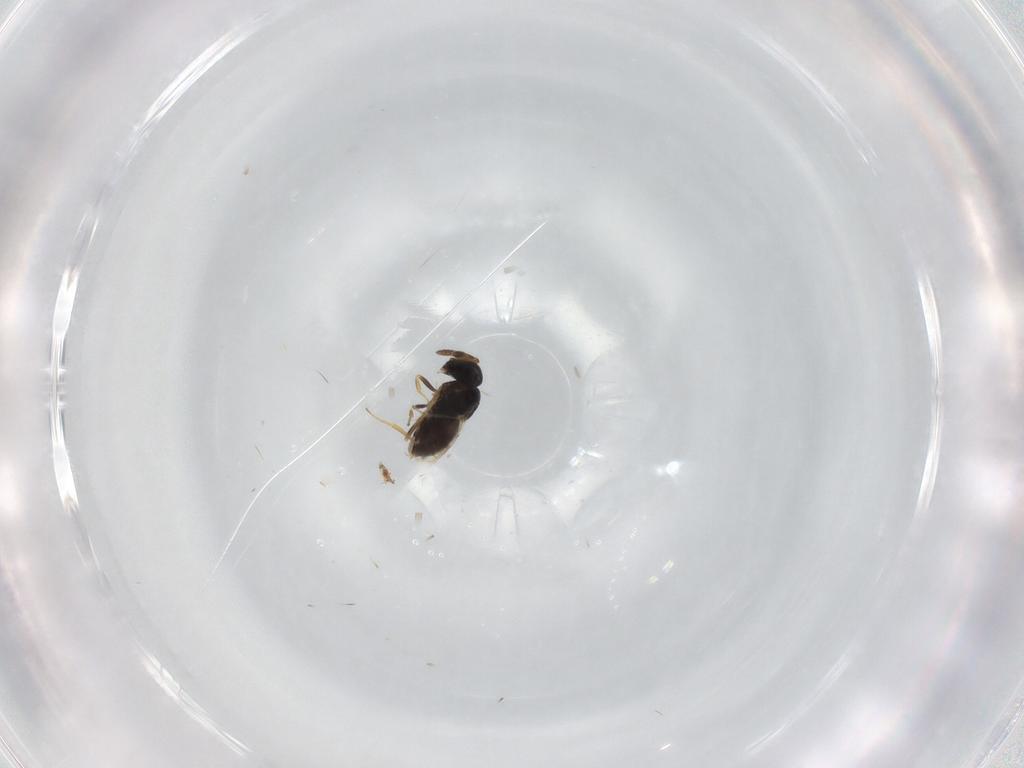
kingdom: Animalia
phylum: Arthropoda
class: Insecta
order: Hymenoptera
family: Scelionidae
